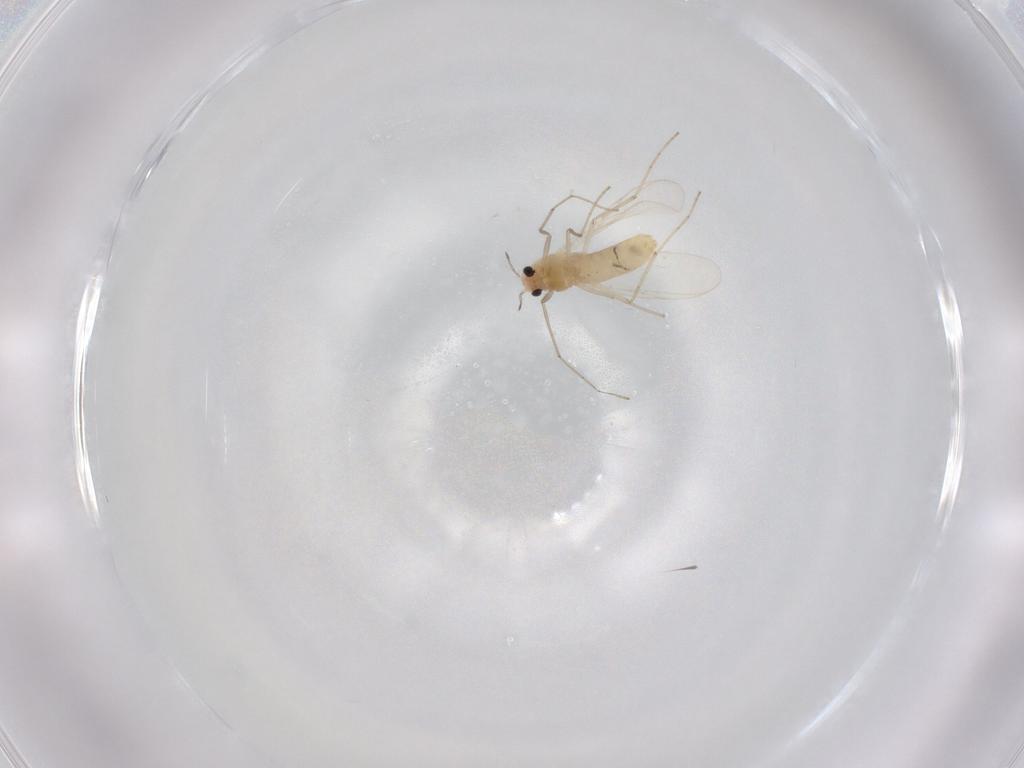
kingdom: Animalia
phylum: Arthropoda
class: Insecta
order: Diptera
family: Chironomidae
